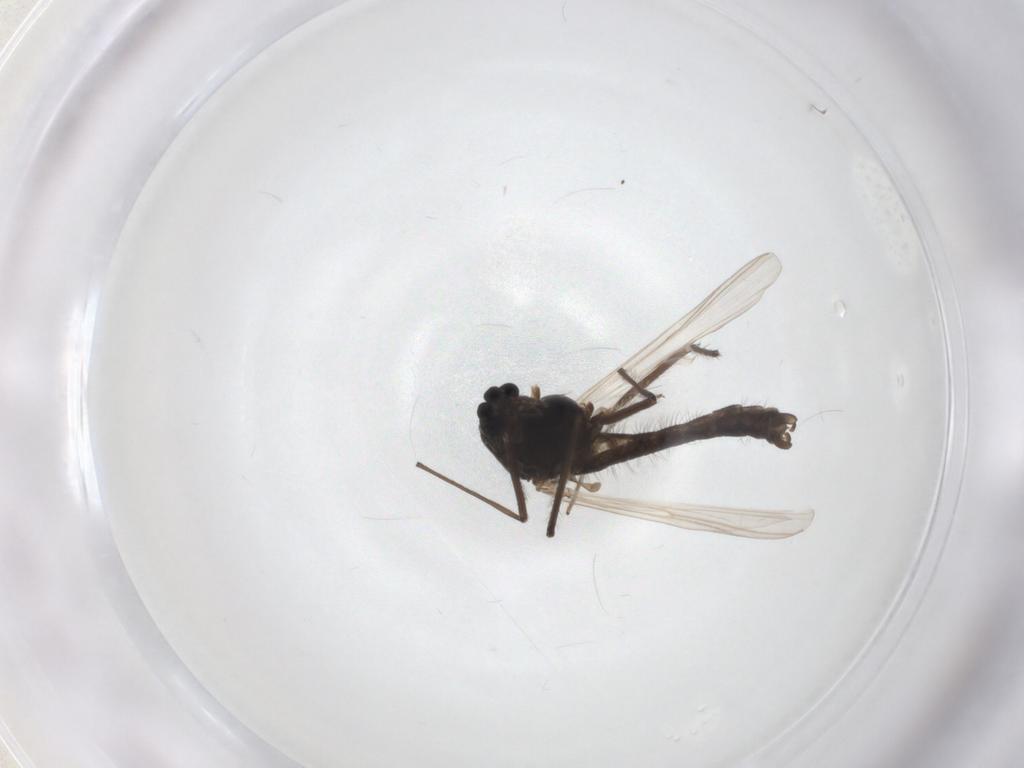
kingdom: Animalia
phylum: Arthropoda
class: Insecta
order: Diptera
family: Chironomidae
